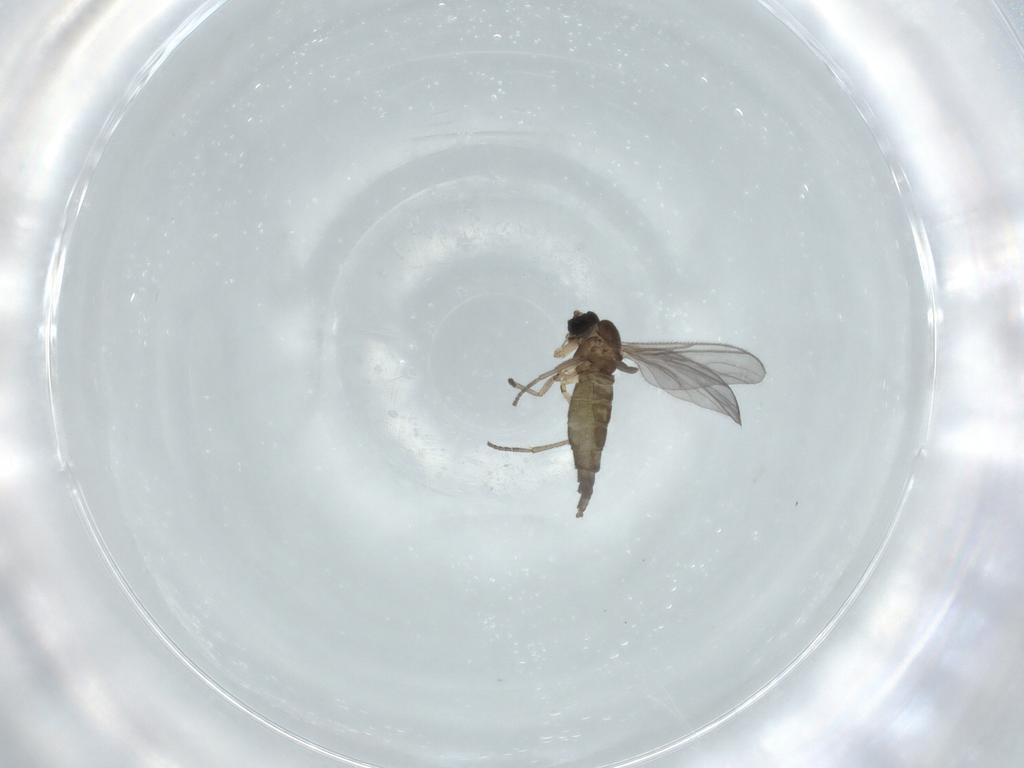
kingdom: Animalia
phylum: Arthropoda
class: Insecta
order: Diptera
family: Sciaridae
